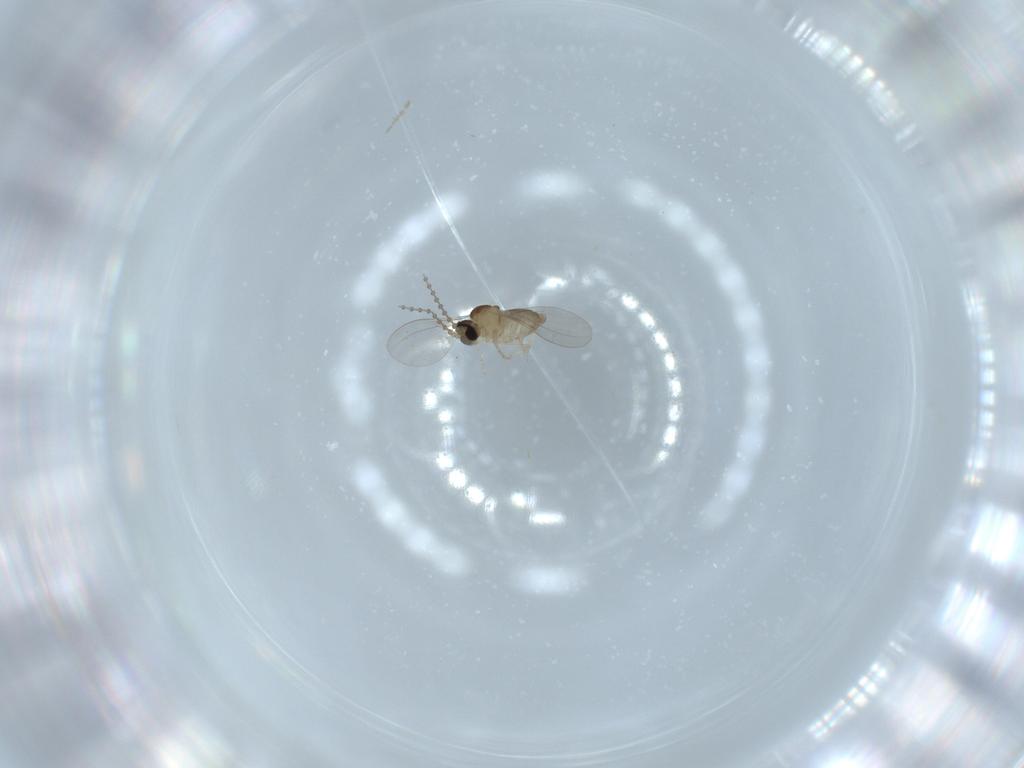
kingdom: Animalia
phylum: Arthropoda
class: Insecta
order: Diptera
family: Cecidomyiidae
